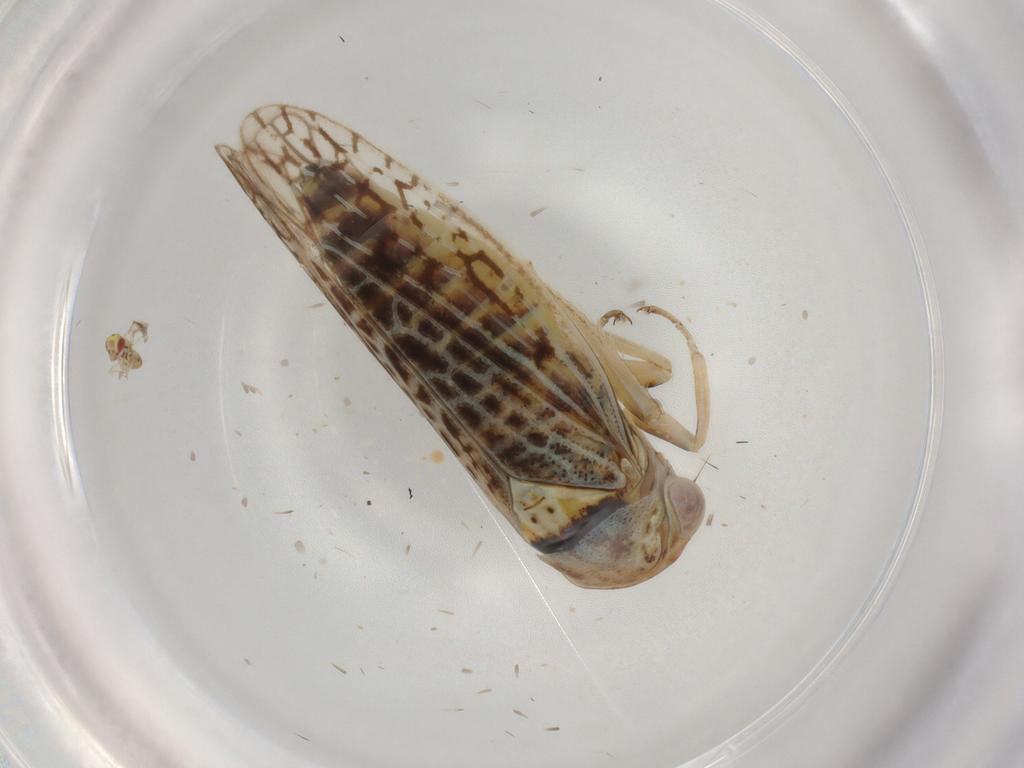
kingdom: Animalia
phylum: Arthropoda
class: Insecta
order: Hemiptera
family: Cicadellidae
